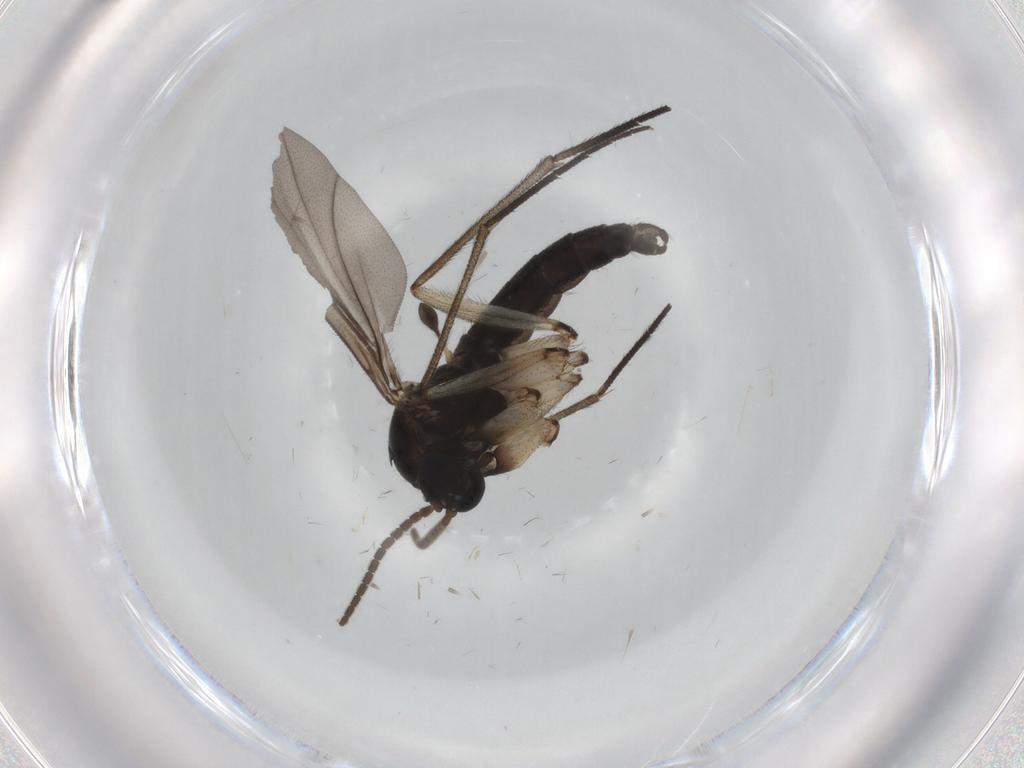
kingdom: Animalia
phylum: Arthropoda
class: Insecta
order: Diptera
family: Sciaridae
